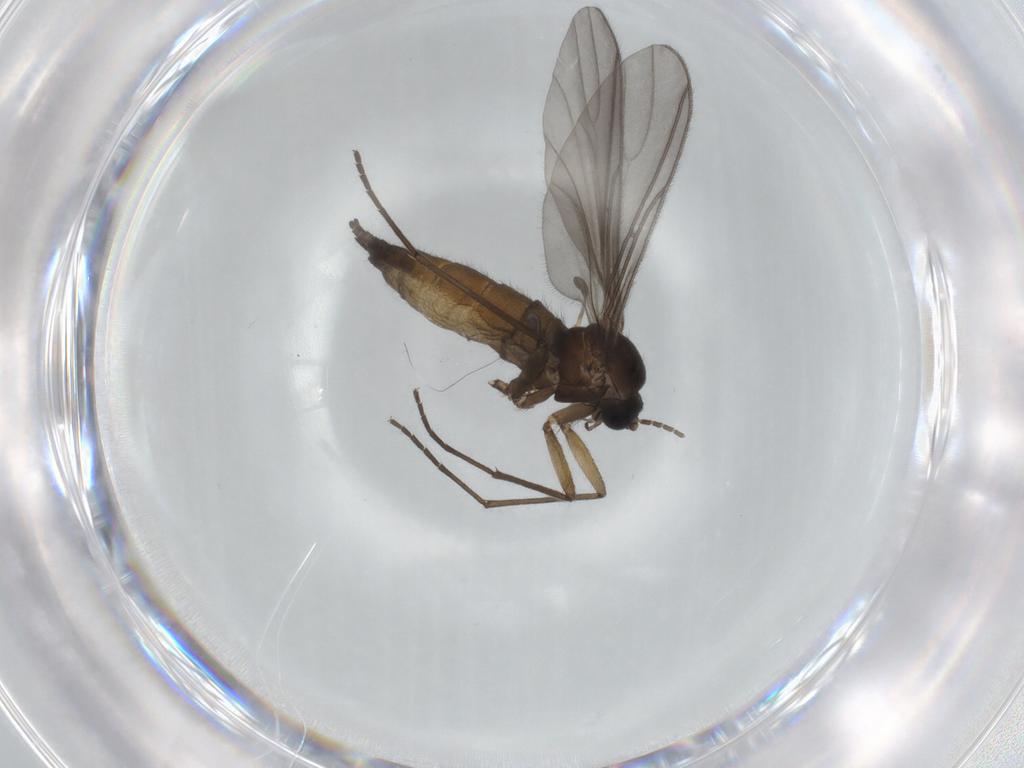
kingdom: Animalia
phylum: Arthropoda
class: Insecta
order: Diptera
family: Sciaridae
